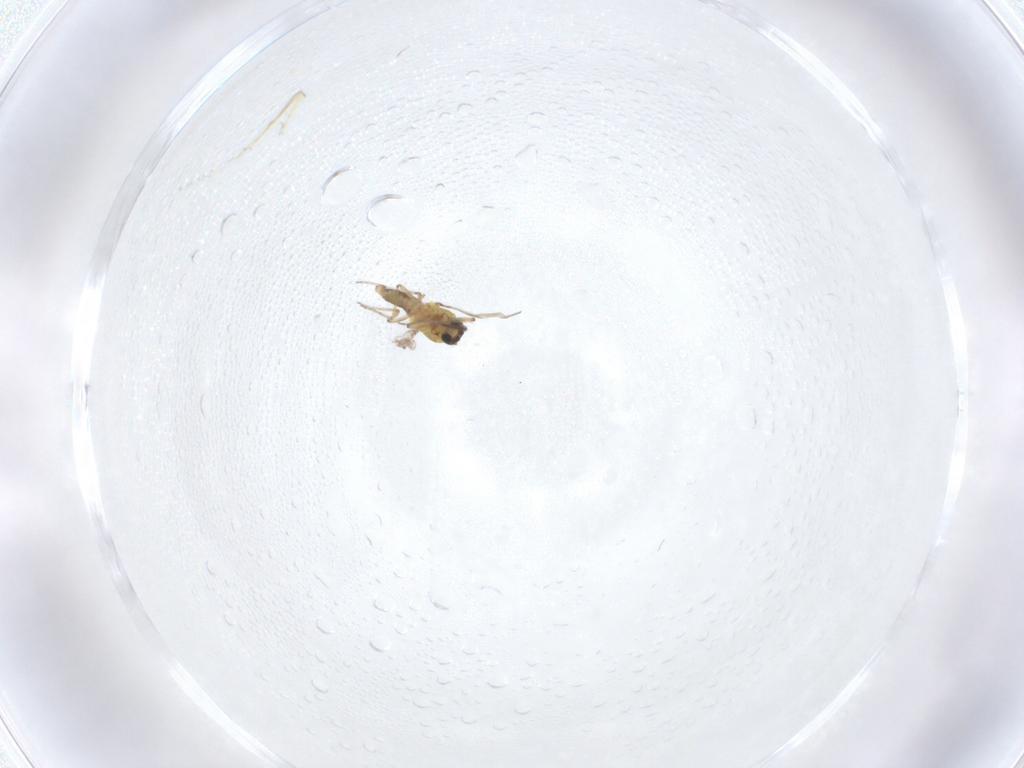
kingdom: Animalia
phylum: Arthropoda
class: Insecta
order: Diptera
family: Ceratopogonidae
